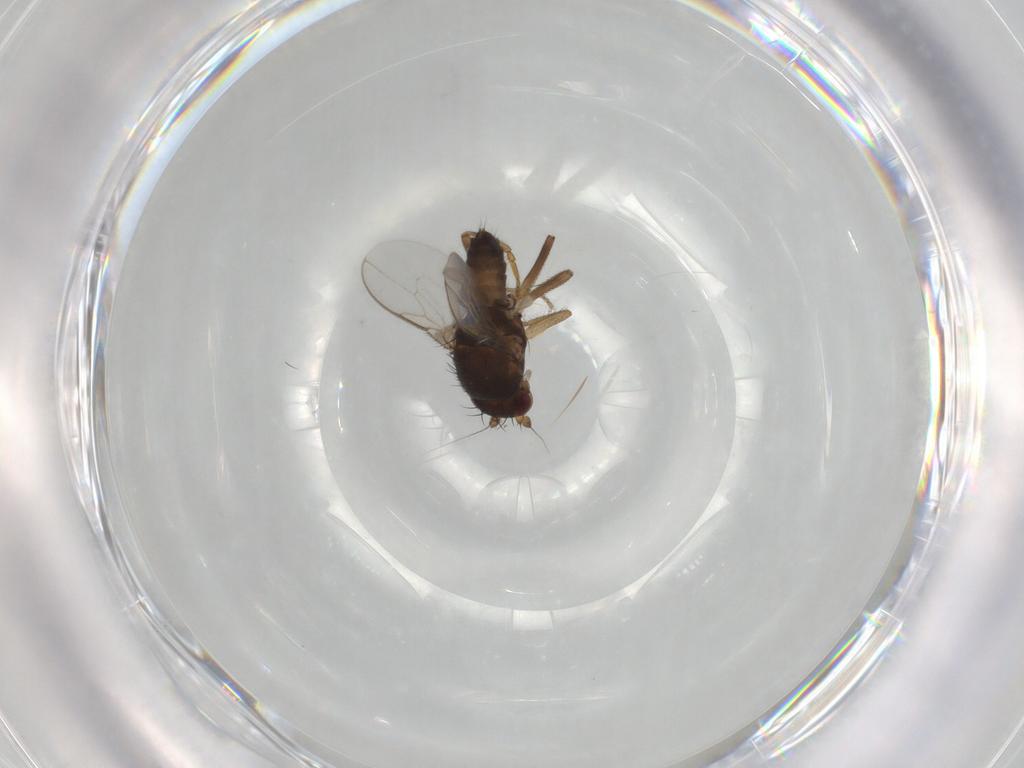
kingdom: Animalia
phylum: Arthropoda
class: Insecta
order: Diptera
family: Sphaeroceridae
